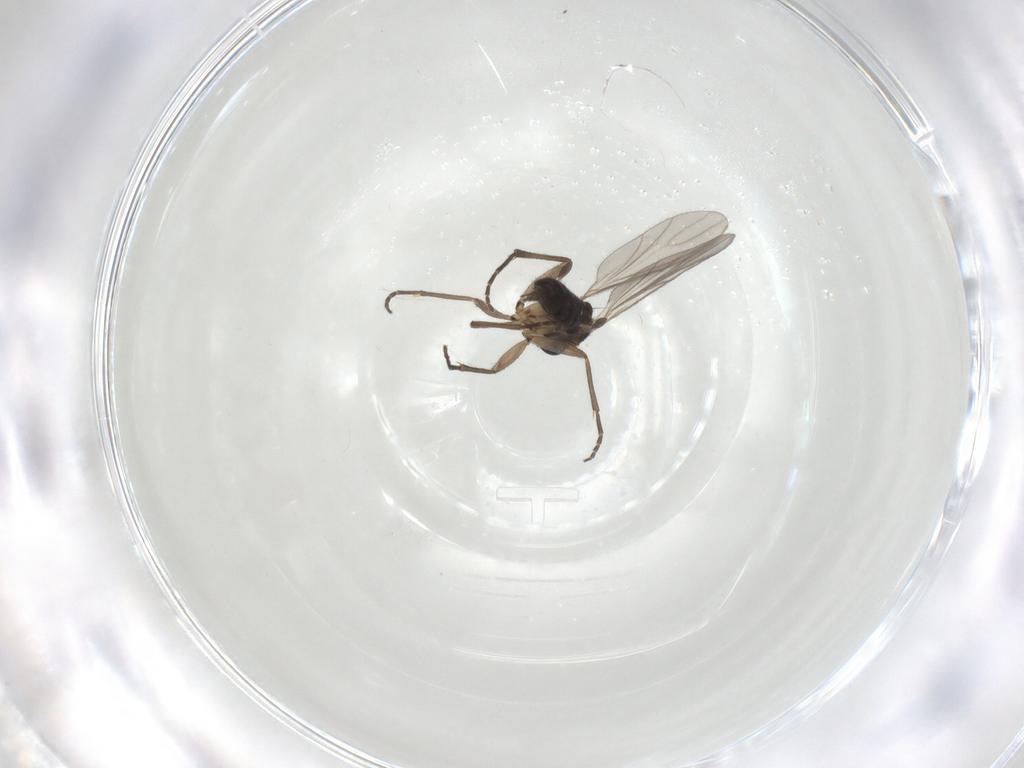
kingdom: Animalia
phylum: Arthropoda
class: Insecta
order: Diptera
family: Sciaridae
